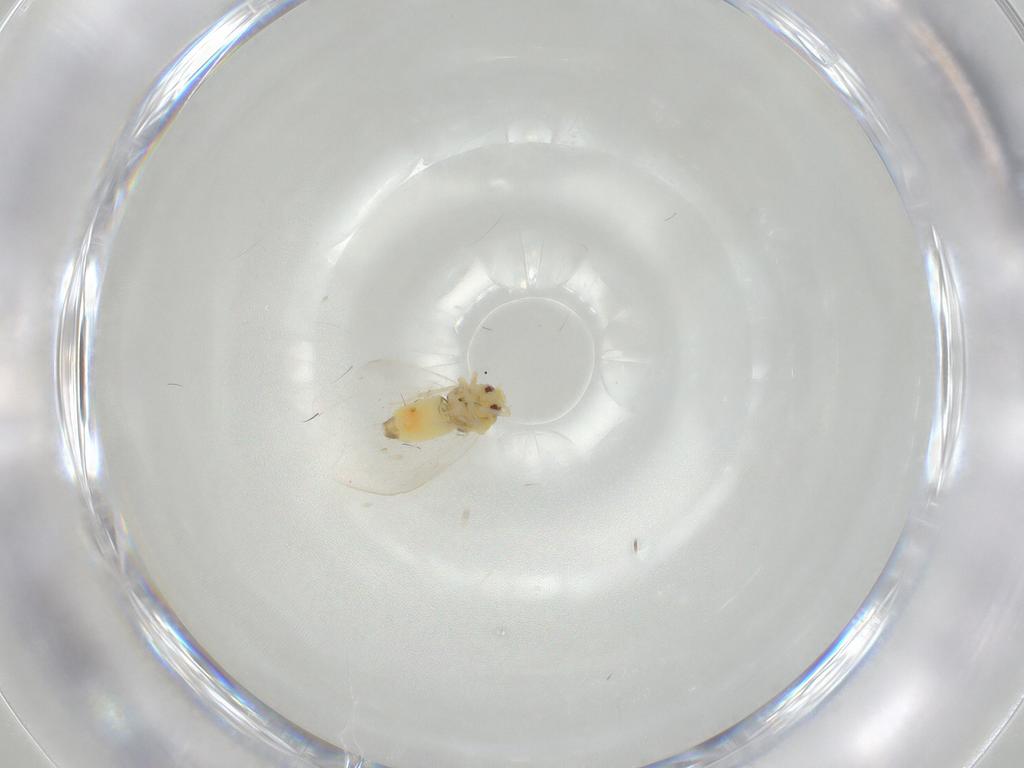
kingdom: Animalia
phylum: Arthropoda
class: Insecta
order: Hemiptera
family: Aleyrodidae
